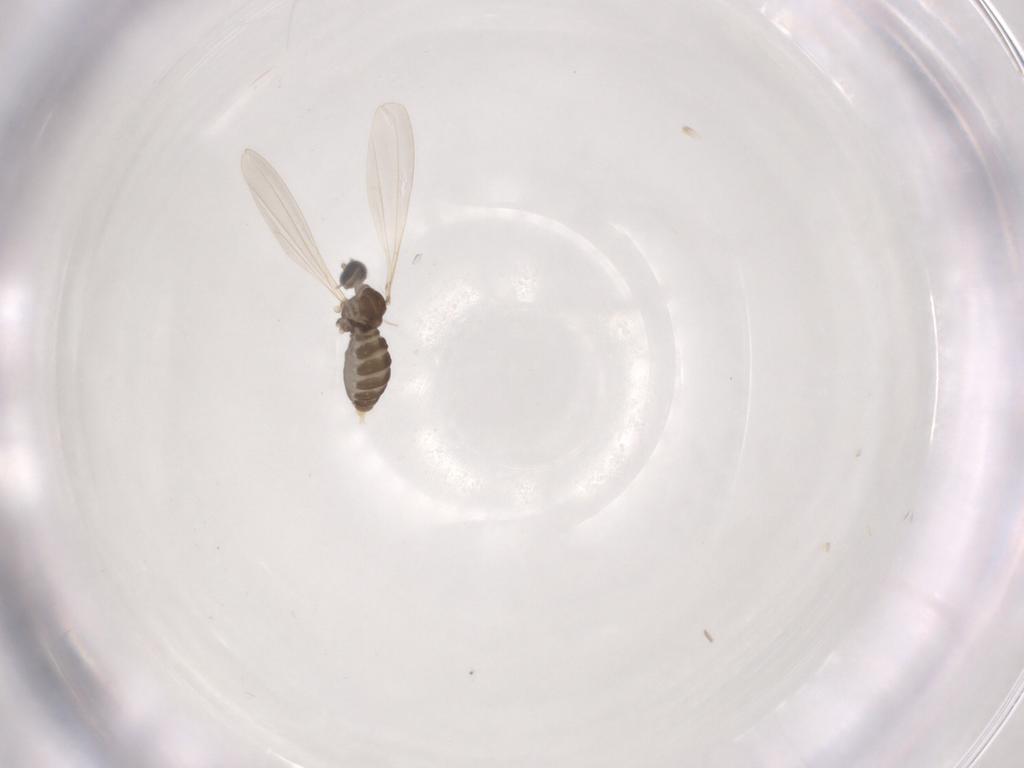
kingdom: Animalia
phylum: Arthropoda
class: Insecta
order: Diptera
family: Cecidomyiidae
